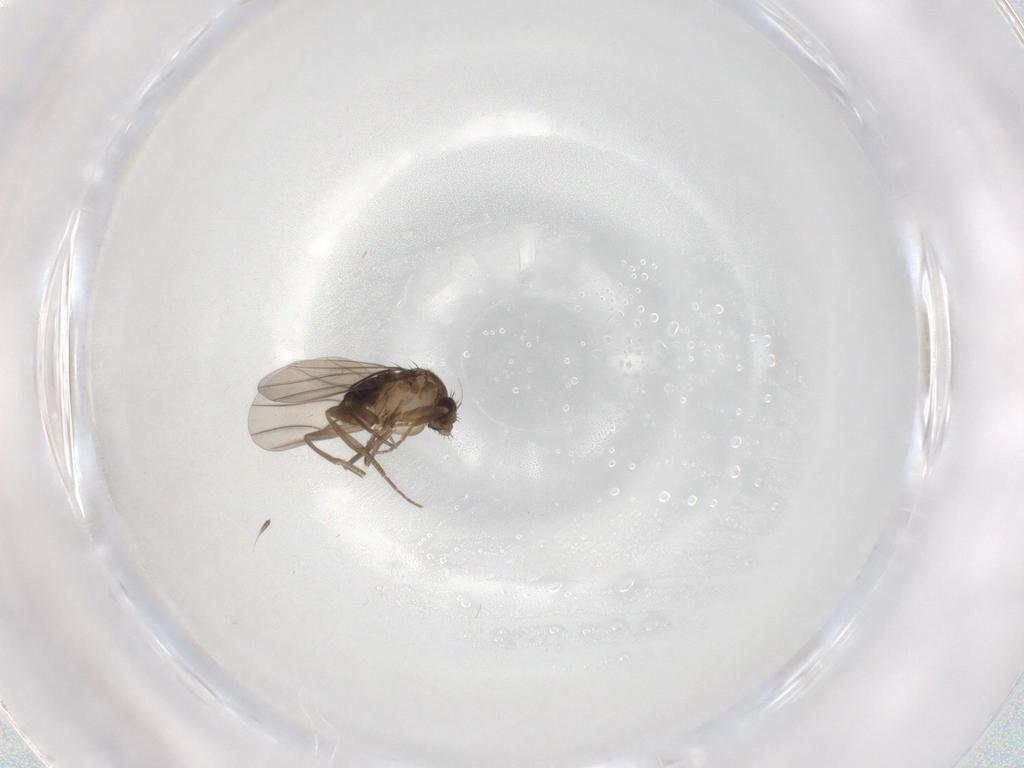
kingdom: Animalia
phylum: Arthropoda
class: Insecta
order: Diptera
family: Phoridae
